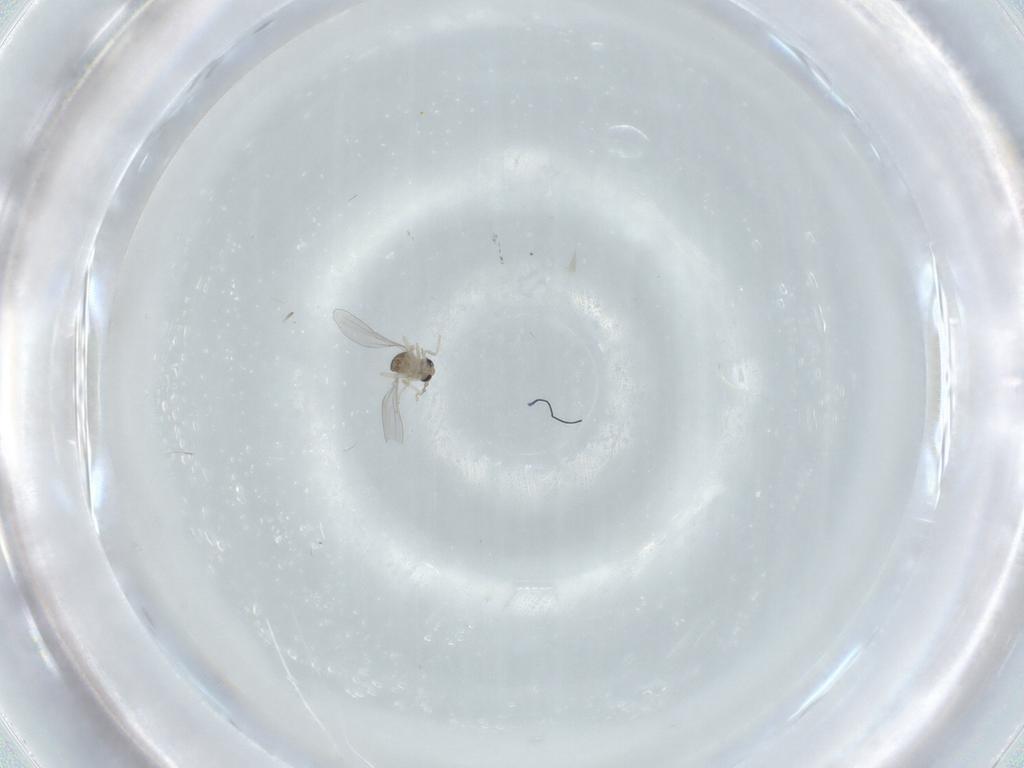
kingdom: Animalia
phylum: Arthropoda
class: Insecta
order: Diptera
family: Cecidomyiidae
